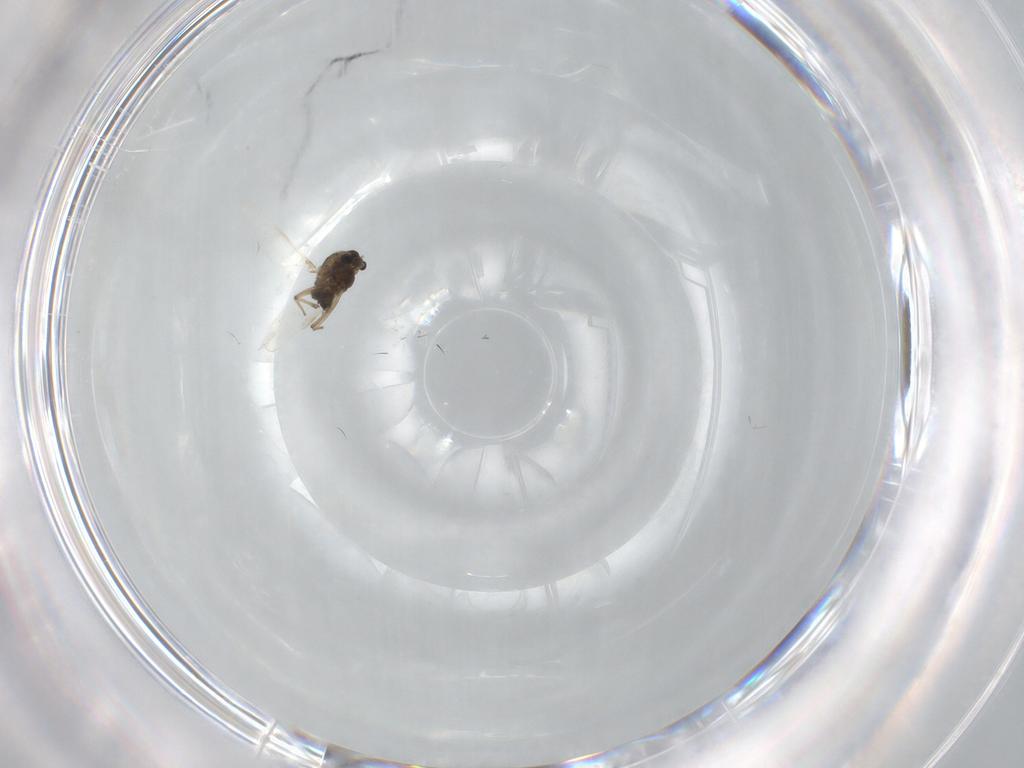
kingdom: Animalia
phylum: Arthropoda
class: Insecta
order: Diptera
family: Chironomidae
